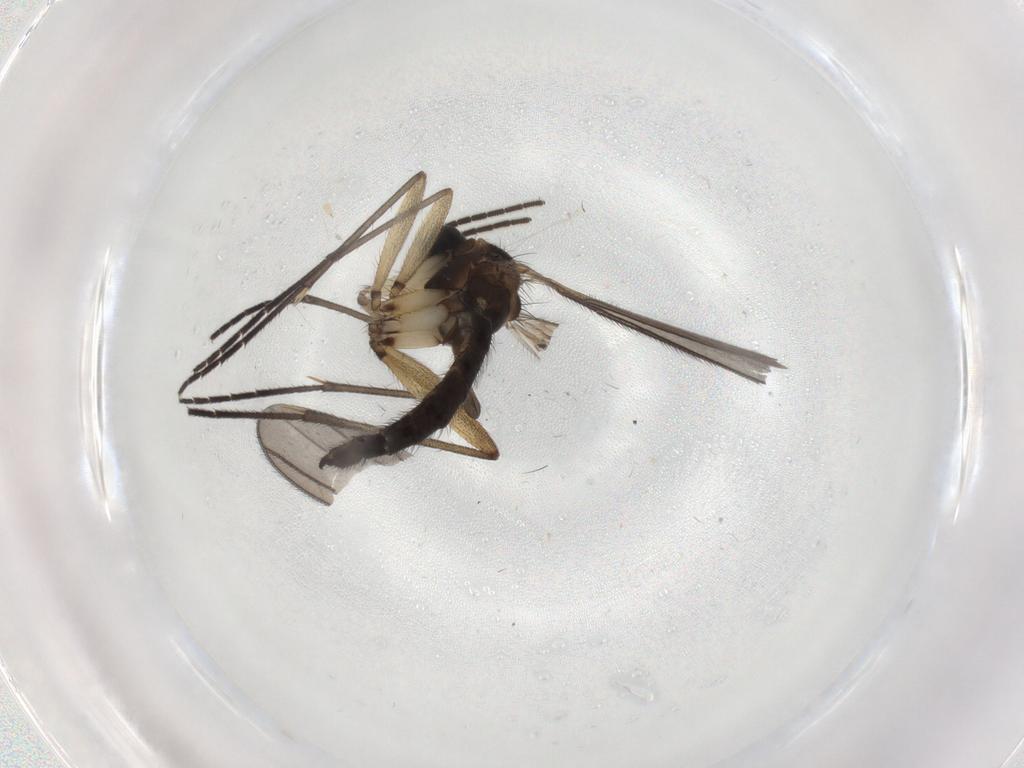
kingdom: Animalia
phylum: Arthropoda
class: Insecta
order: Diptera
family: Sciaridae
